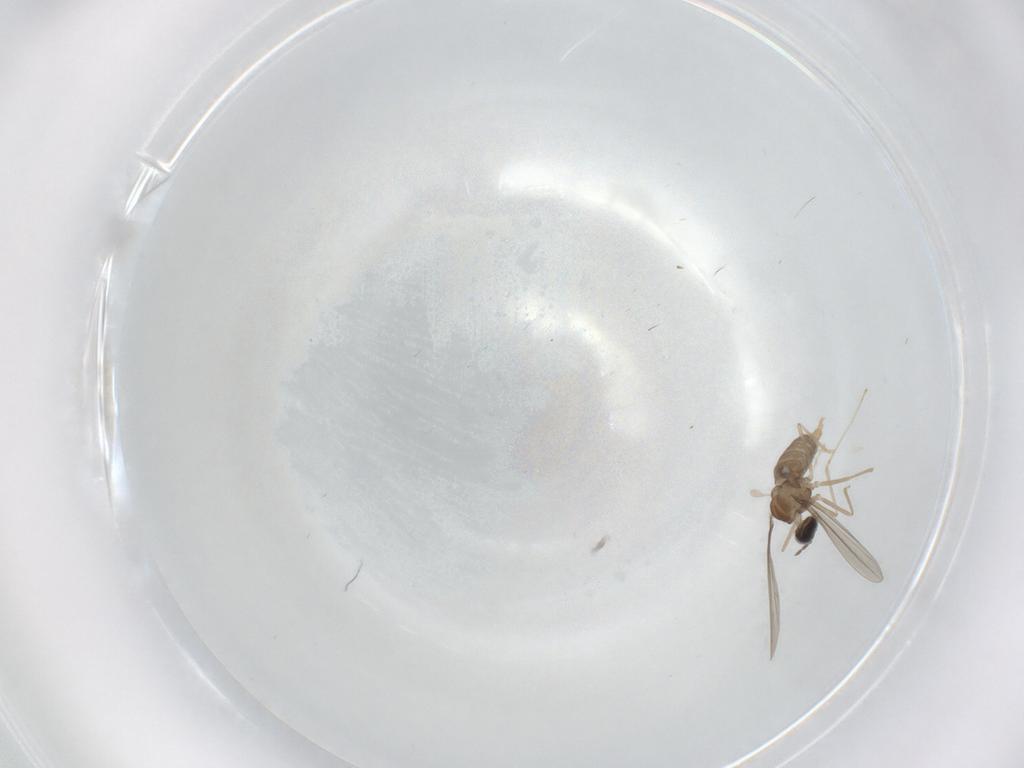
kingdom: Animalia
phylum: Arthropoda
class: Insecta
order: Diptera
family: Cecidomyiidae
